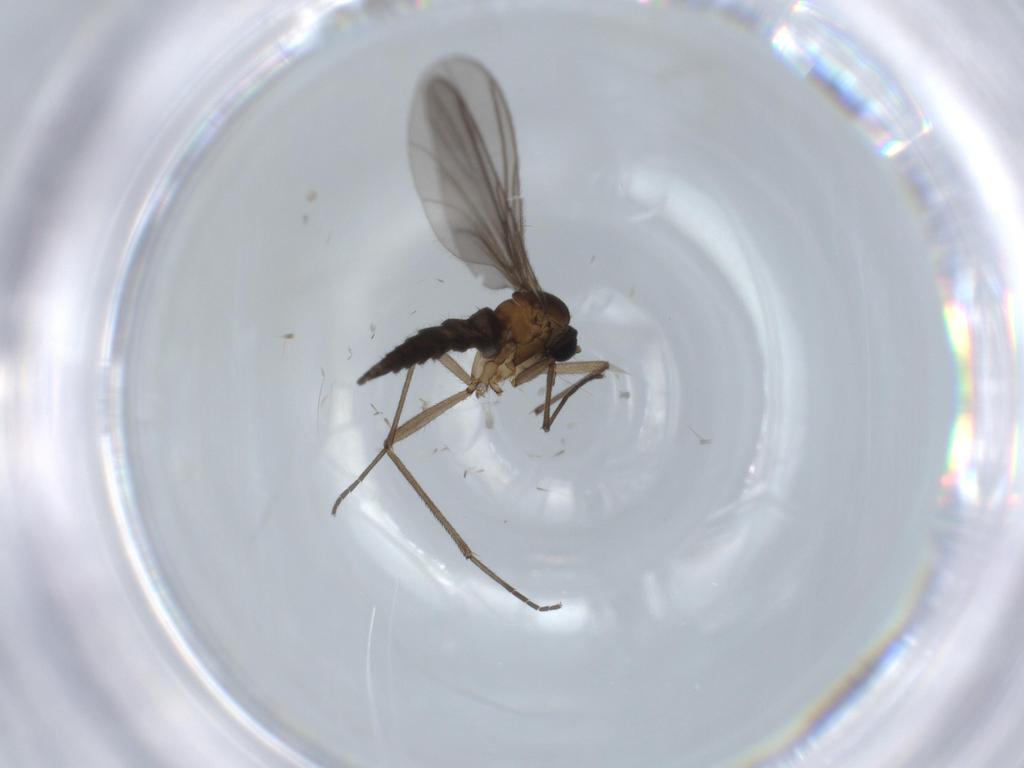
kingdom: Animalia
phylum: Arthropoda
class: Insecta
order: Diptera
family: Sciaridae
